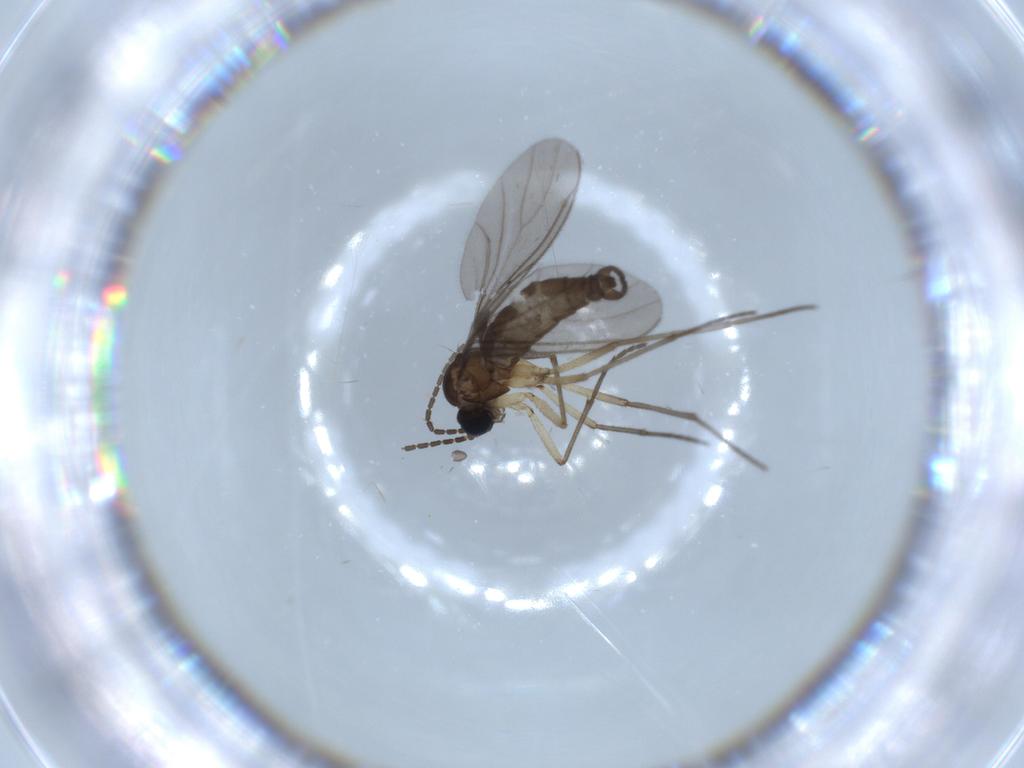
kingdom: Animalia
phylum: Arthropoda
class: Insecta
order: Diptera
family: Sciaridae
